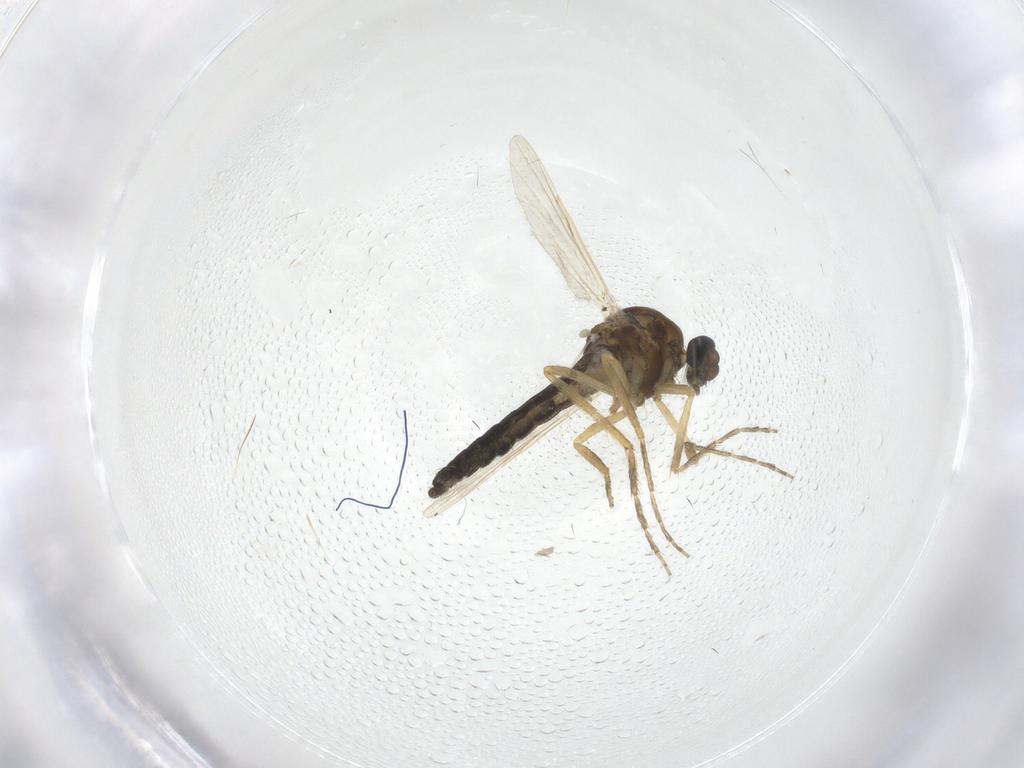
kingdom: Animalia
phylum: Arthropoda
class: Insecta
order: Diptera
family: Ceratopogonidae
